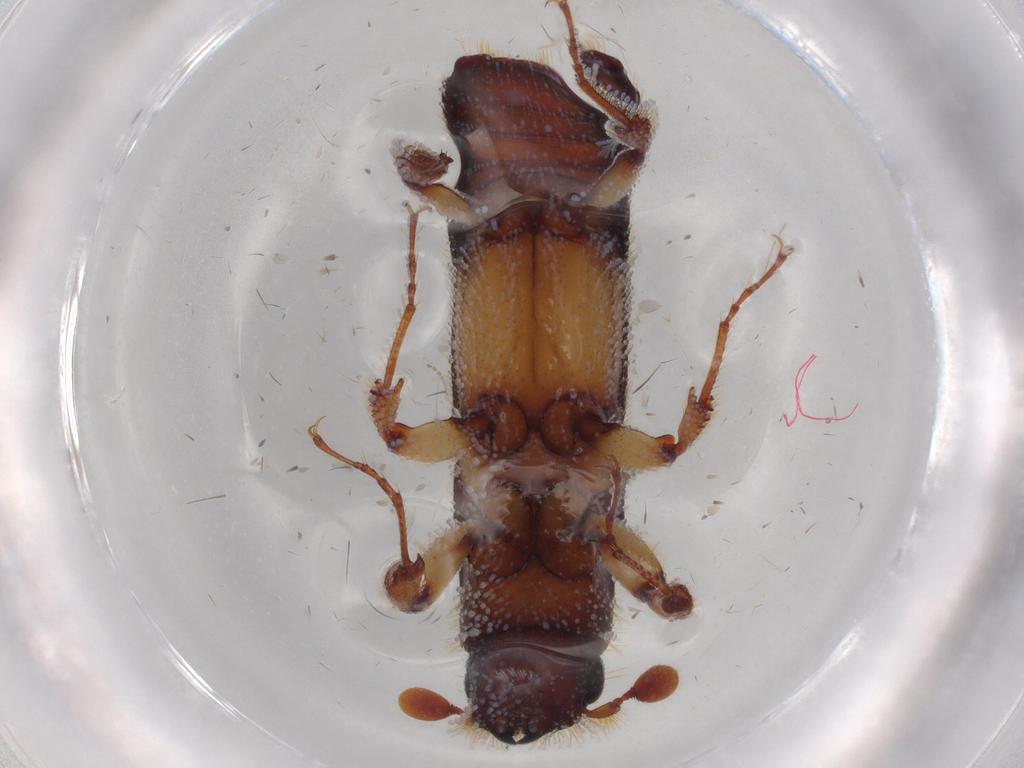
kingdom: Animalia
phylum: Arthropoda
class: Insecta
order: Coleoptera
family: Curculionidae
